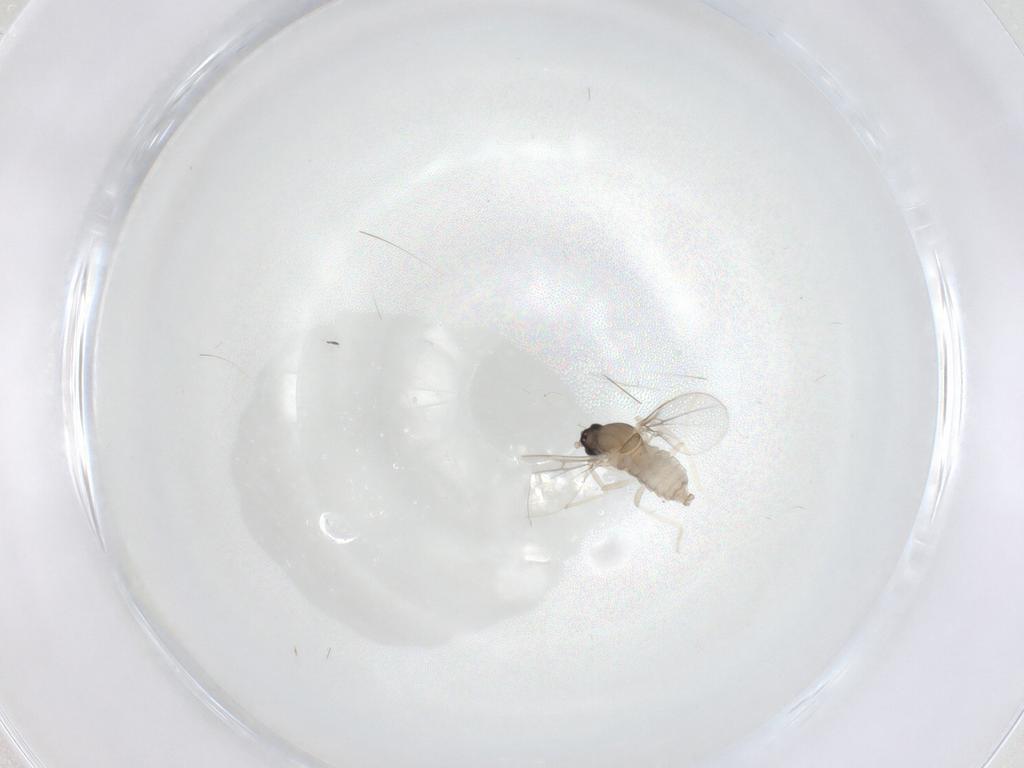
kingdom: Animalia
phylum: Arthropoda
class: Insecta
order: Diptera
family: Cecidomyiidae
